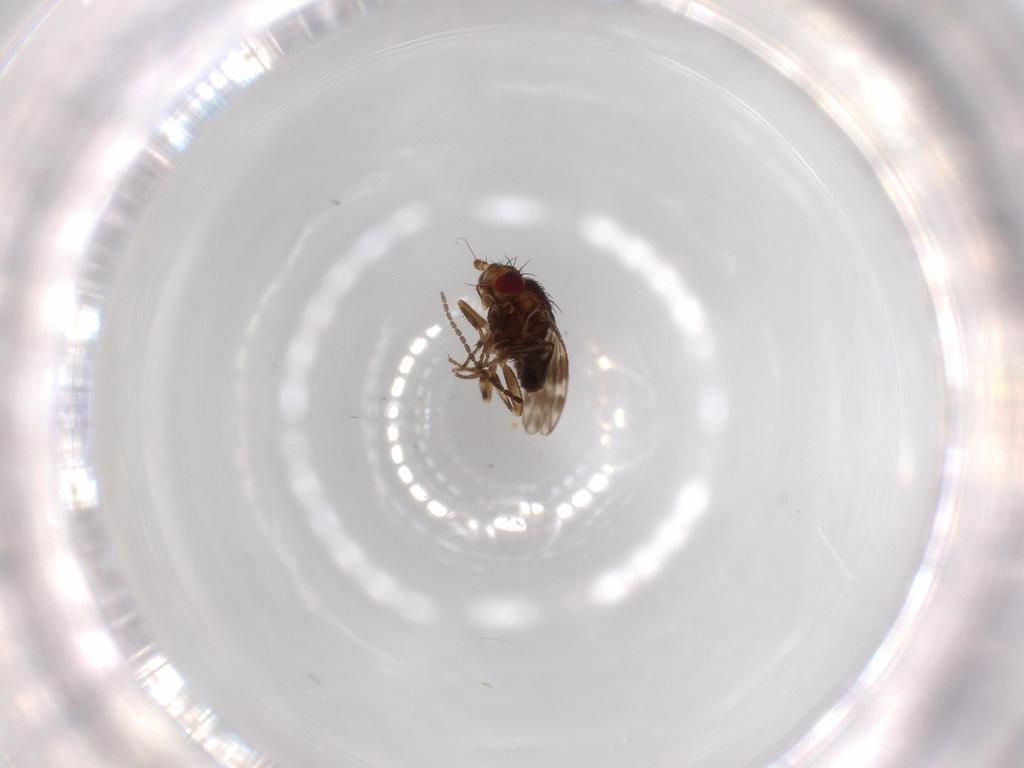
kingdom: Animalia
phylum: Arthropoda
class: Insecta
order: Diptera
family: Sphaeroceridae
